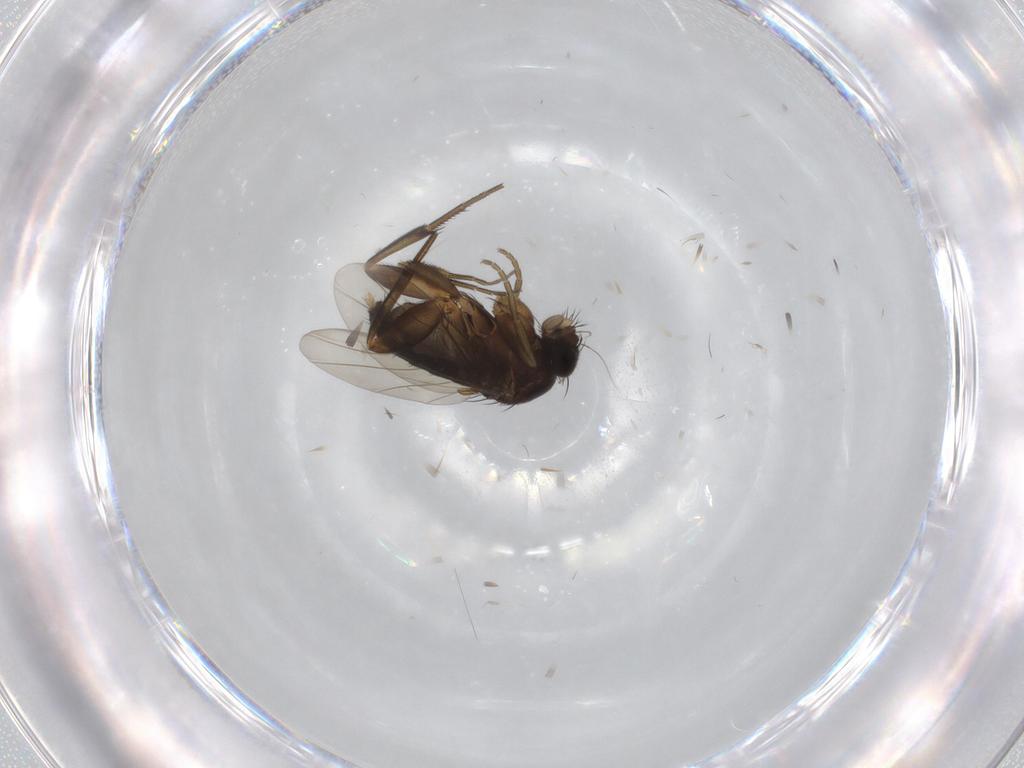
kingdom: Animalia
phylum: Arthropoda
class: Insecta
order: Diptera
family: Phoridae
